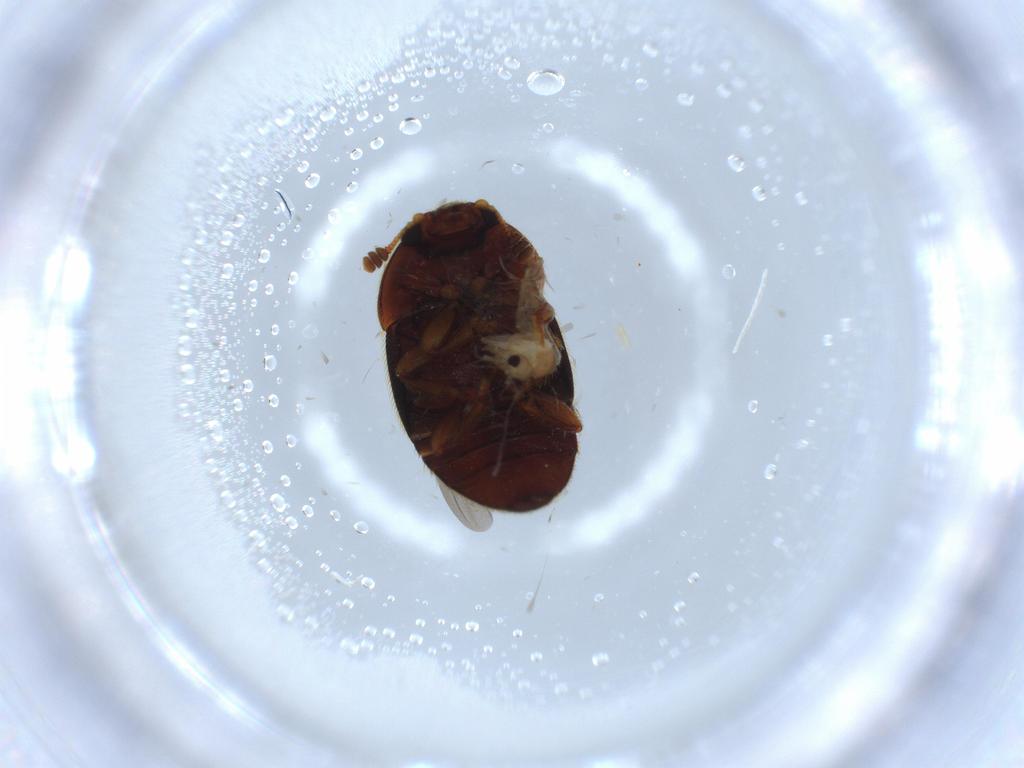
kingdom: Animalia
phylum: Arthropoda
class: Insecta
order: Coleoptera
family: Nitidulidae
